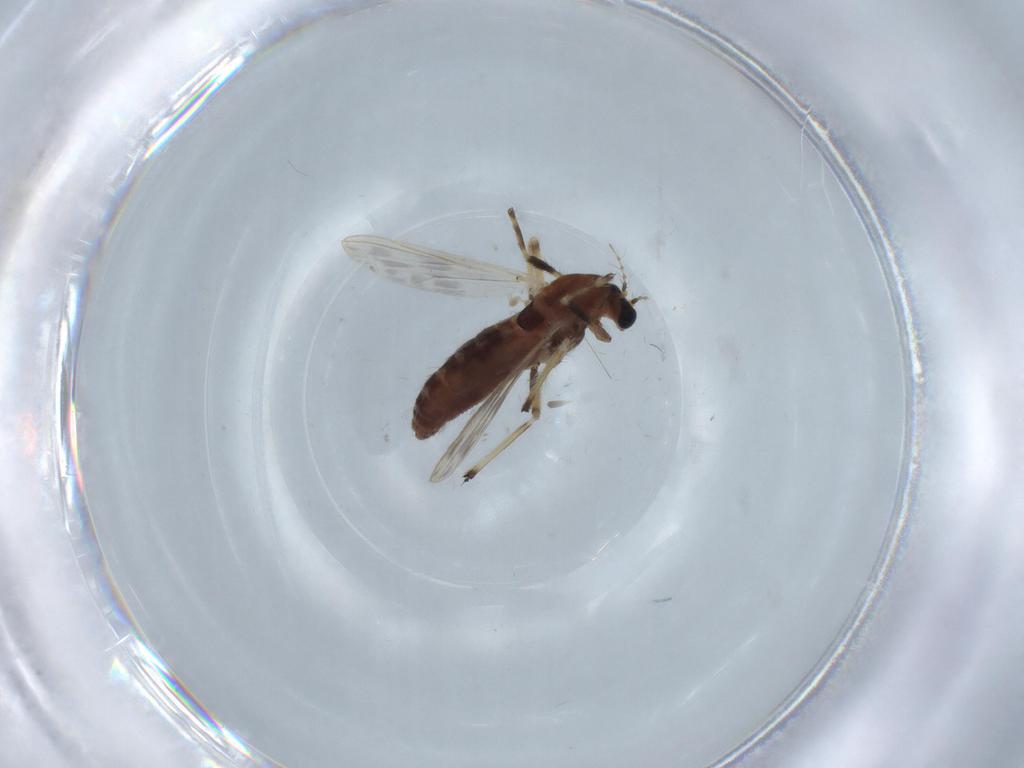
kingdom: Animalia
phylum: Arthropoda
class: Insecta
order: Diptera
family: Chironomidae
